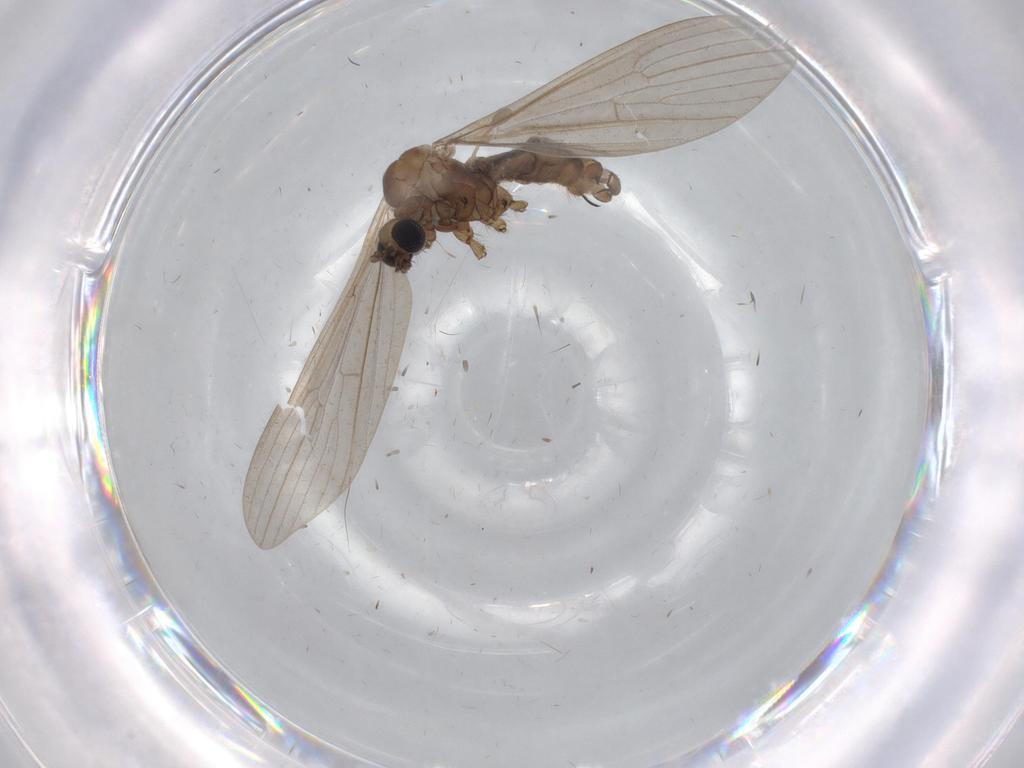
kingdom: Animalia
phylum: Arthropoda
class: Insecta
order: Diptera
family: Limoniidae
